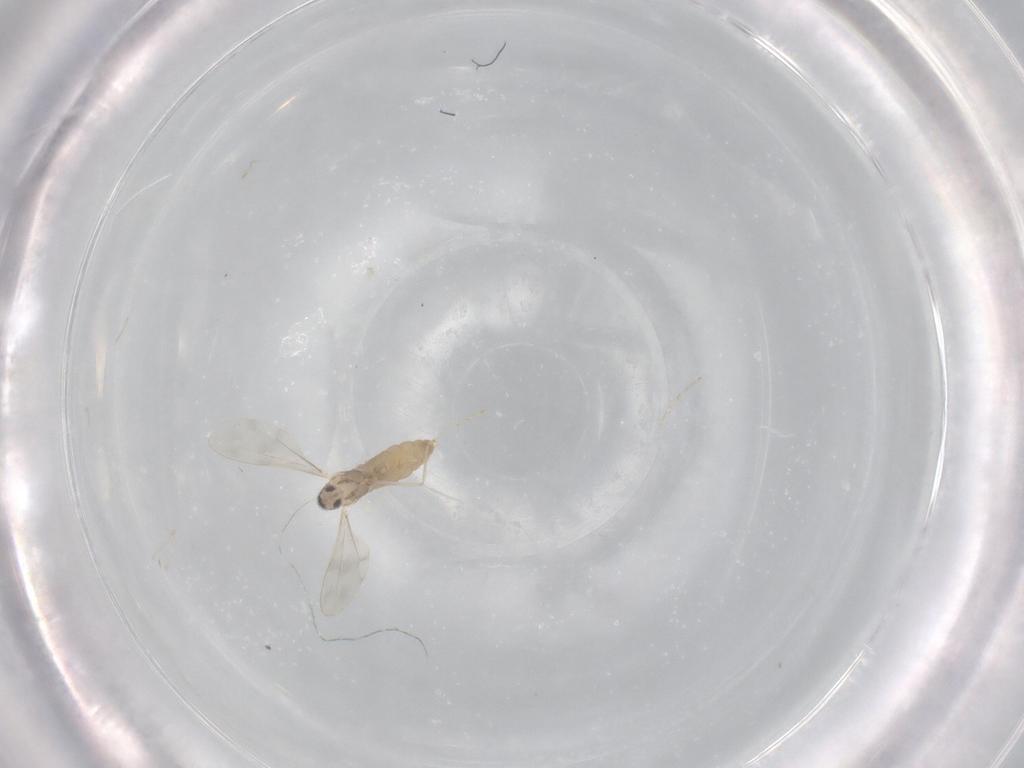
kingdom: Animalia
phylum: Arthropoda
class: Insecta
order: Diptera
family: Cecidomyiidae
